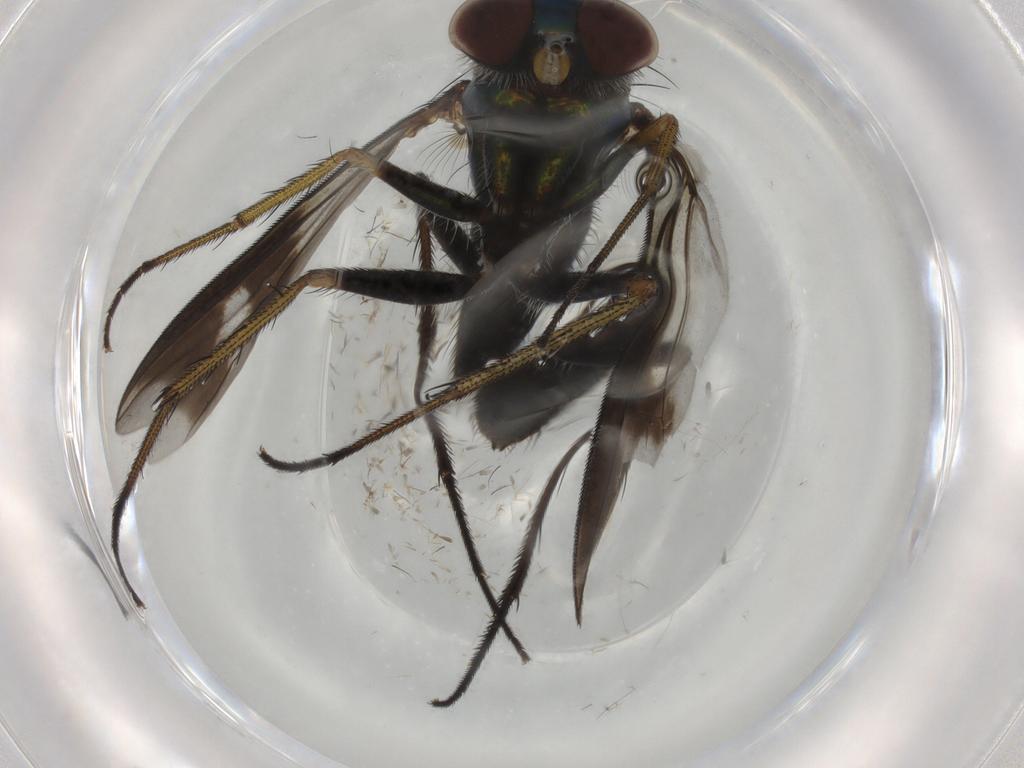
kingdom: Animalia
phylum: Arthropoda
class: Insecta
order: Diptera
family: Dolichopodidae
